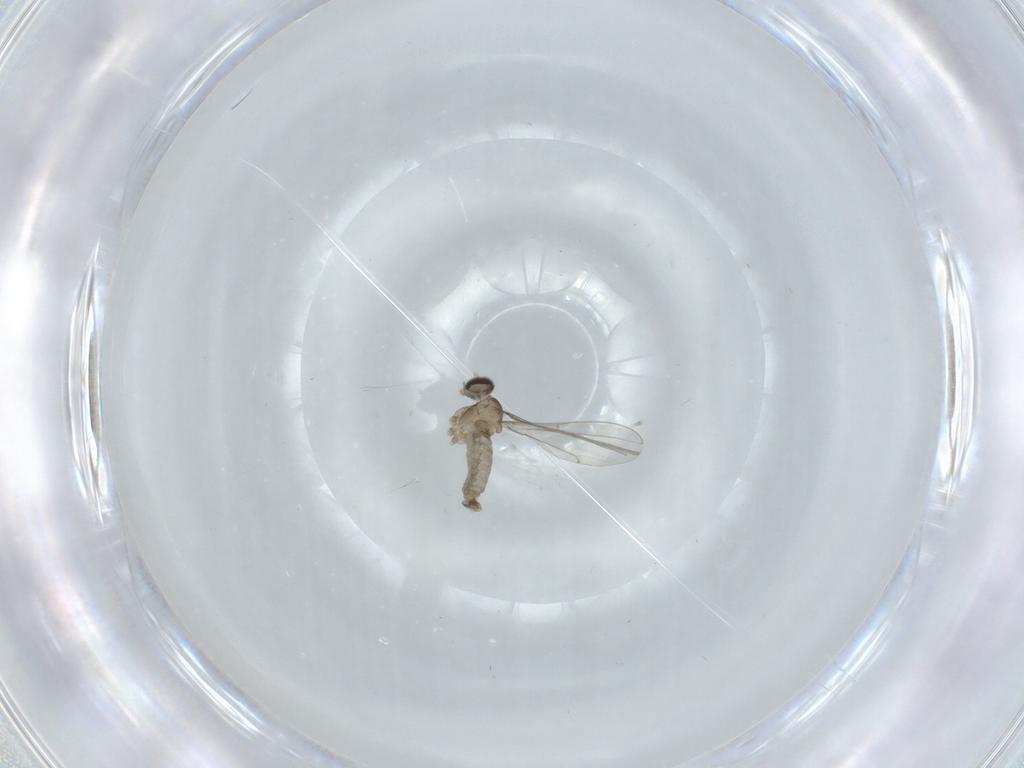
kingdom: Animalia
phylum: Arthropoda
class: Insecta
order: Diptera
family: Cecidomyiidae
